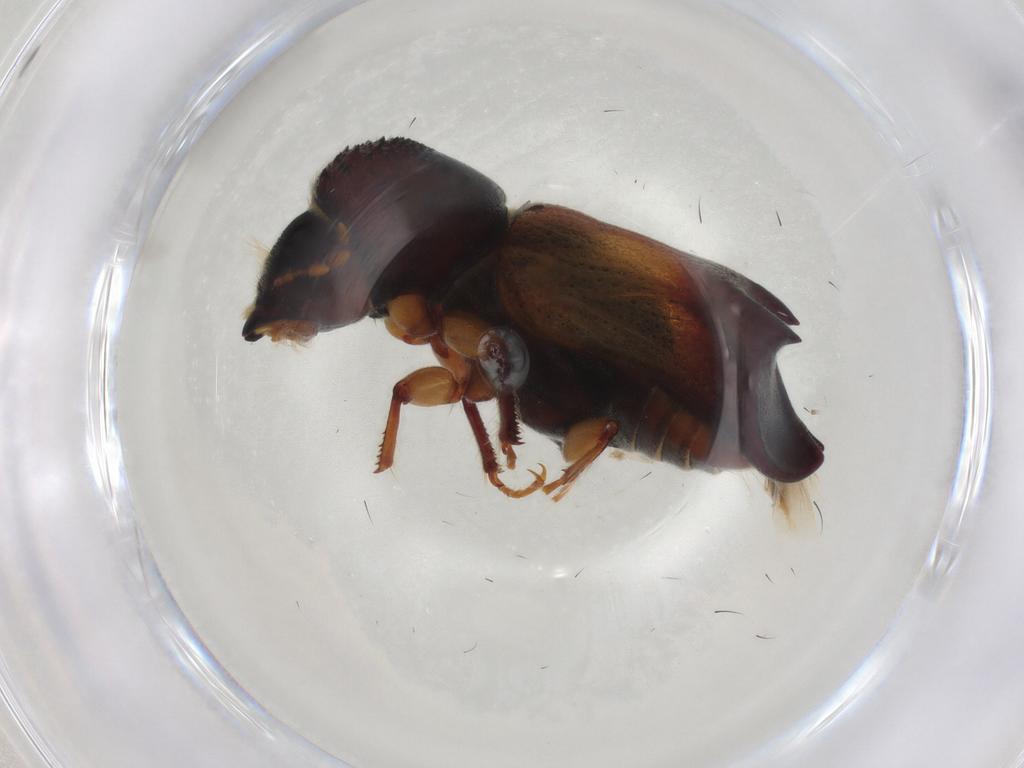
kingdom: Animalia
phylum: Arthropoda
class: Insecta
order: Coleoptera
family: Bostrichidae
